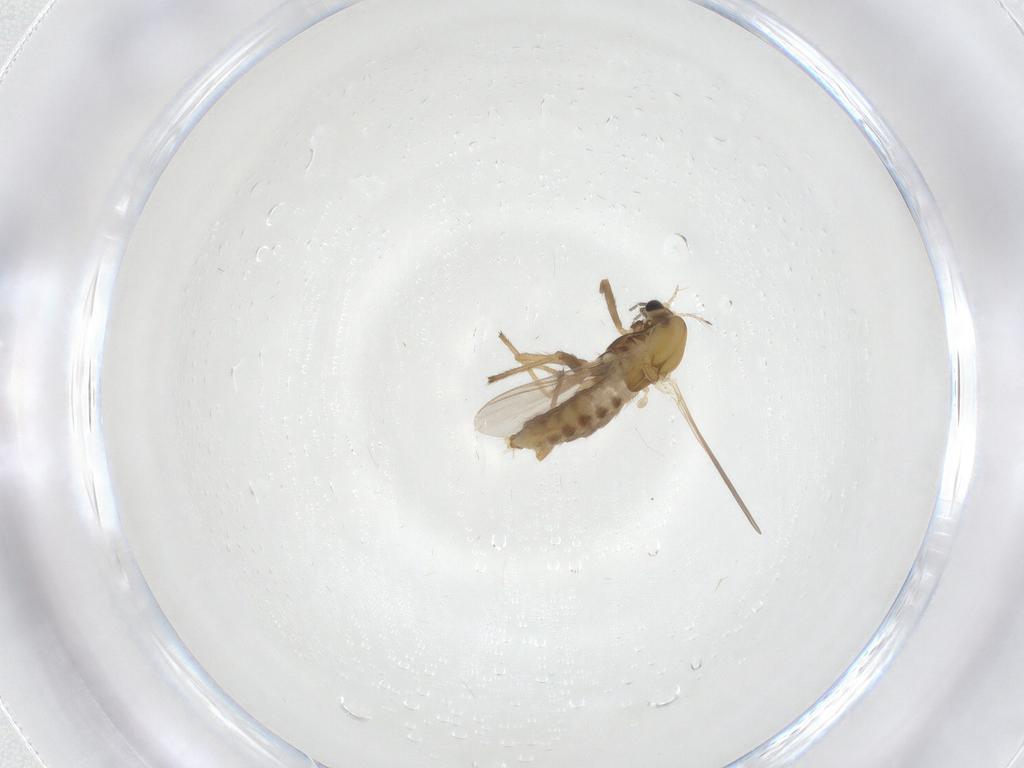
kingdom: Animalia
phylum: Arthropoda
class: Insecta
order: Diptera
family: Chironomidae
